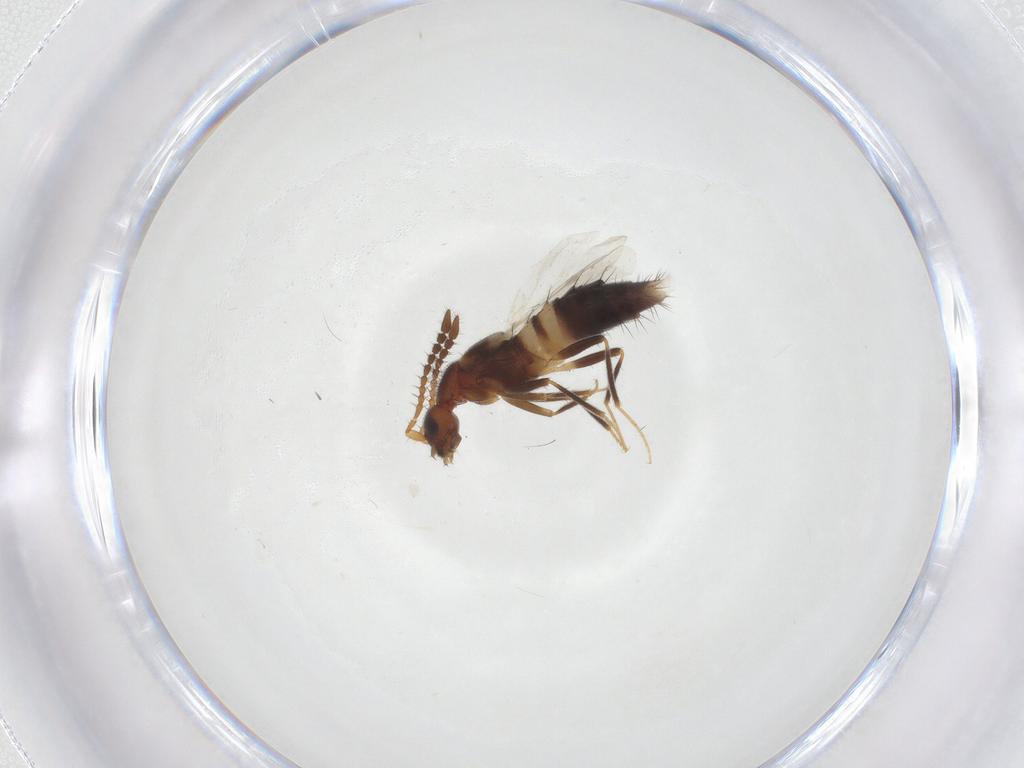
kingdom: Animalia
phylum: Arthropoda
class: Insecta
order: Coleoptera
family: Staphylinidae
